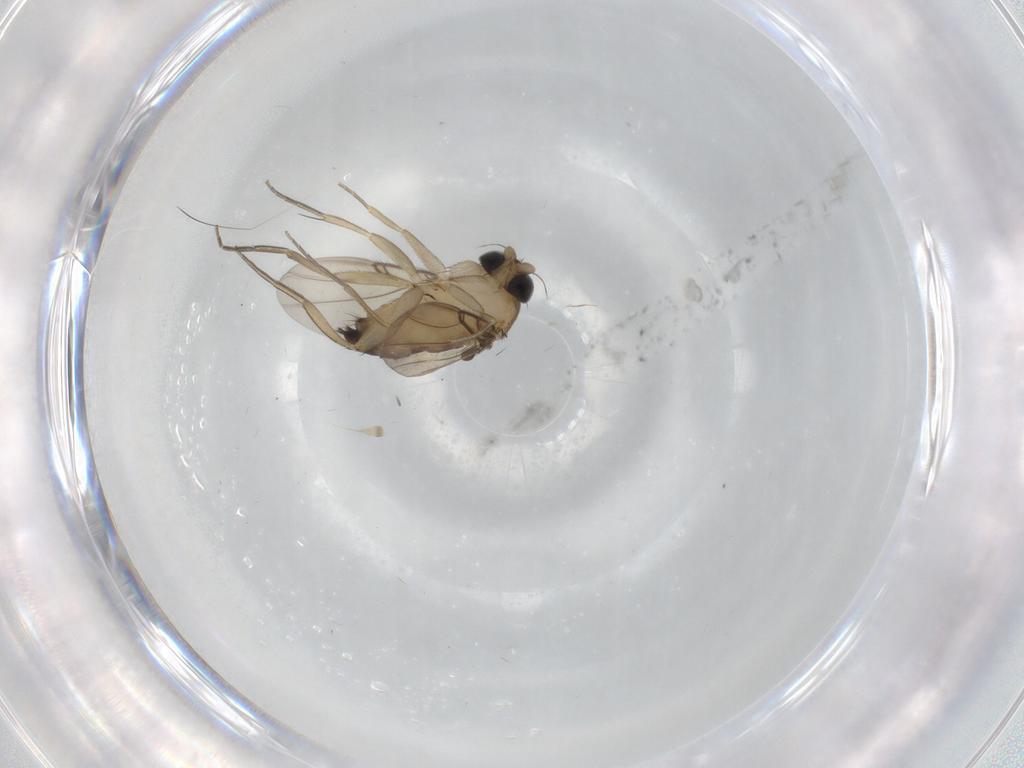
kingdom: Animalia
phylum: Arthropoda
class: Insecta
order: Diptera
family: Phoridae
